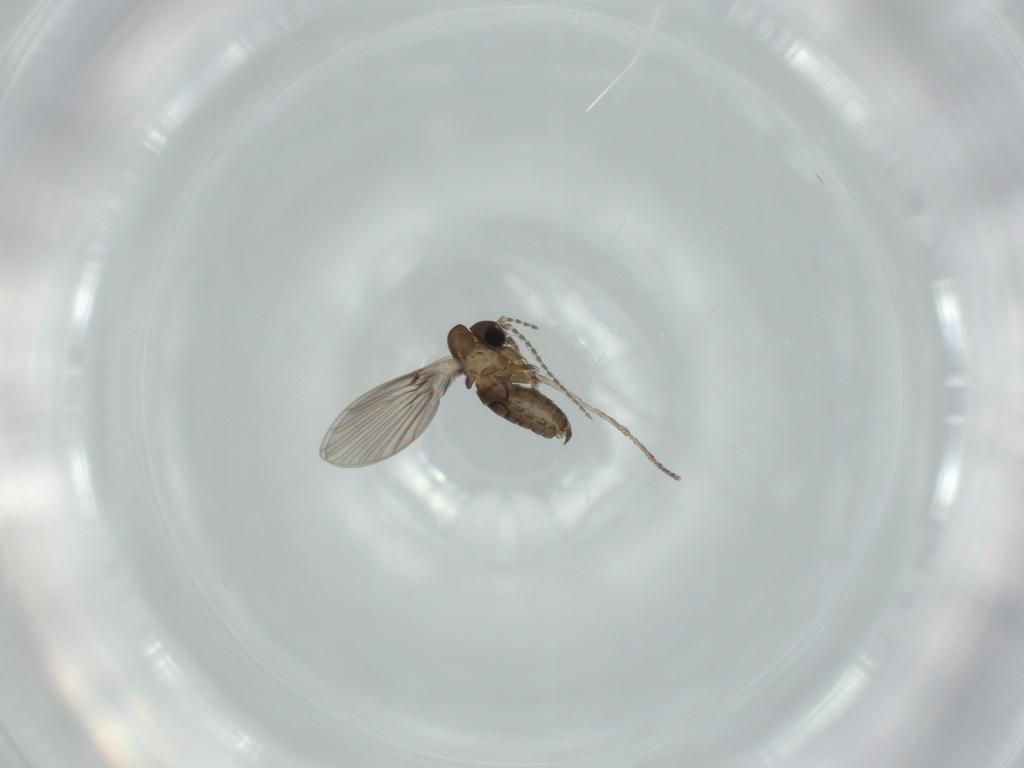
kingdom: Animalia
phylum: Arthropoda
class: Insecta
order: Diptera
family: Psychodidae
